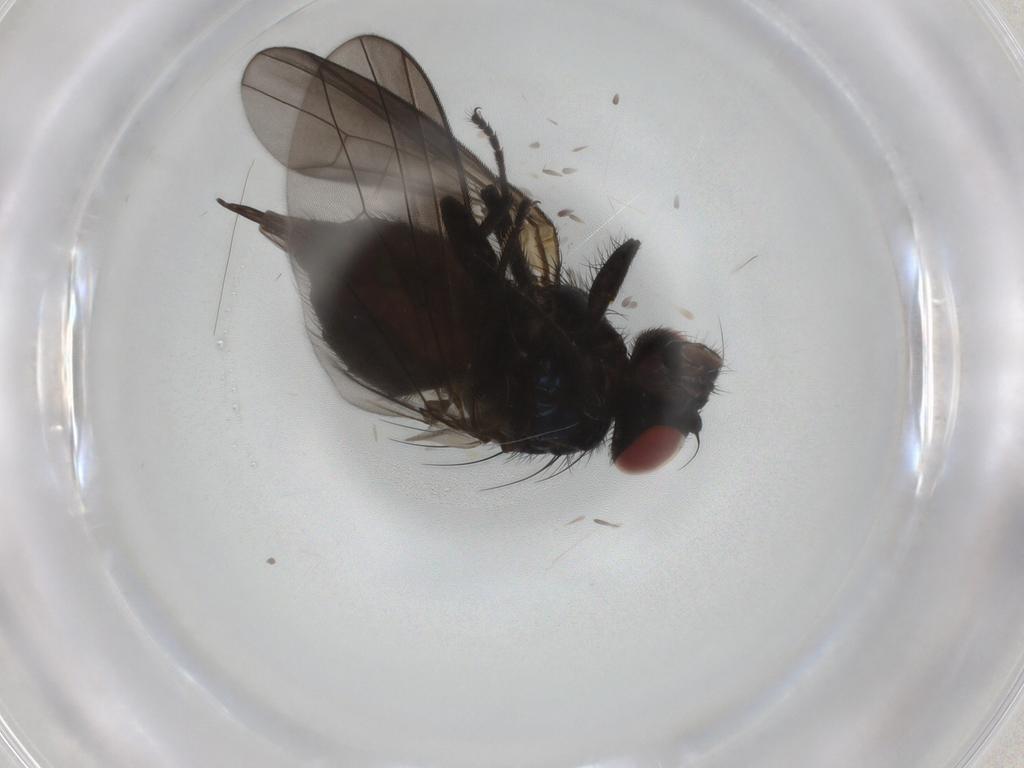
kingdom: Animalia
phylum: Arthropoda
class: Insecta
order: Diptera
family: Lonchaeidae
